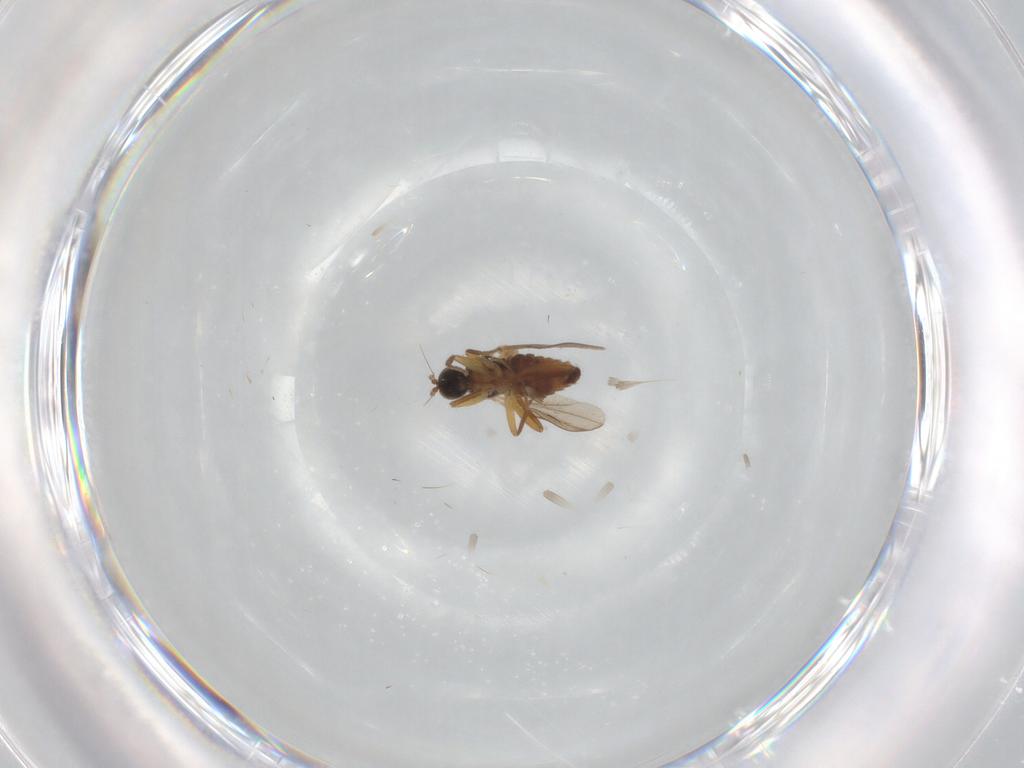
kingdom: Animalia
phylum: Arthropoda
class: Insecta
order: Diptera
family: Hybotidae
